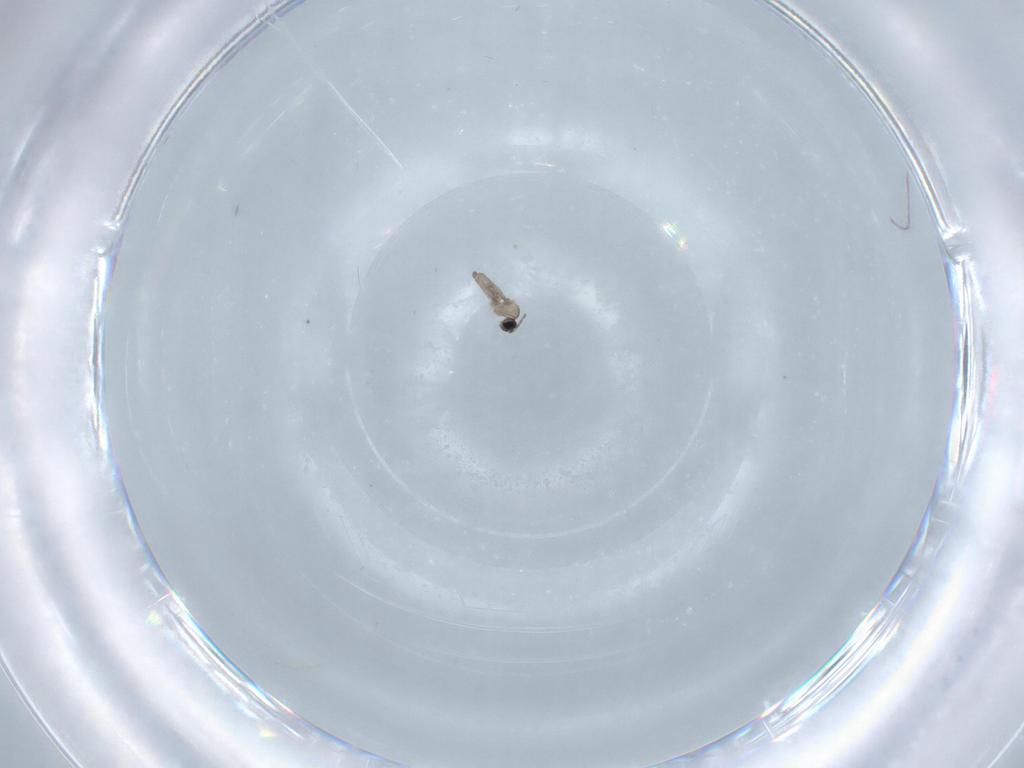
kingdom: Animalia
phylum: Arthropoda
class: Insecta
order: Diptera
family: Cecidomyiidae
